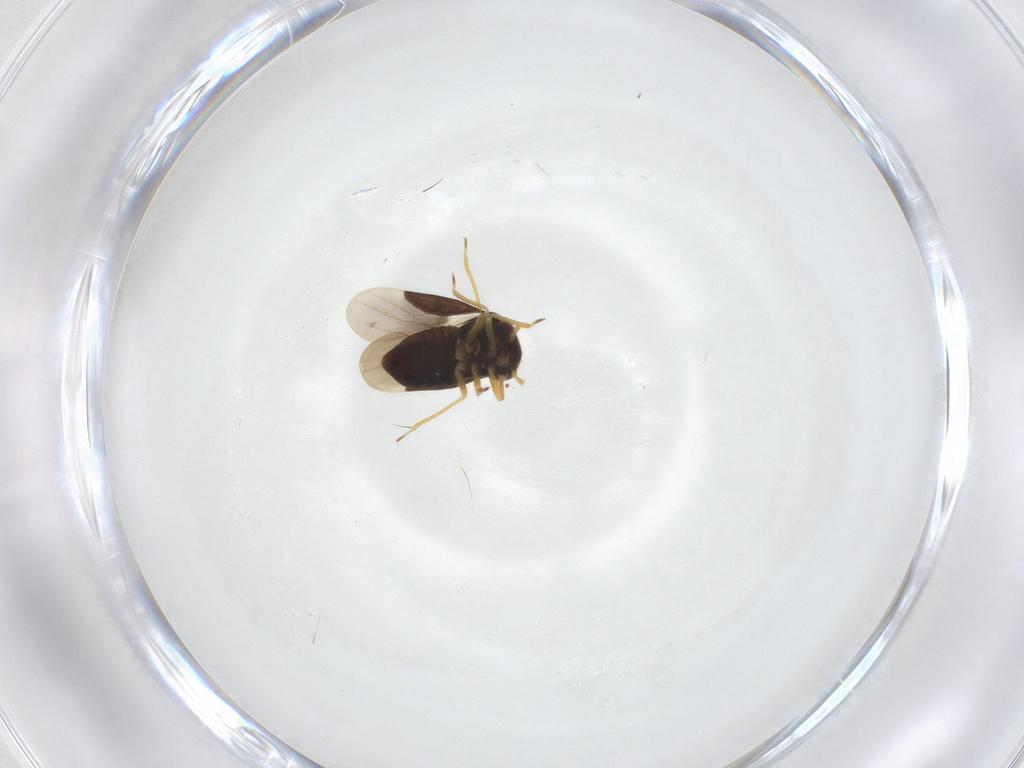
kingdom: Animalia
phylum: Arthropoda
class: Insecta
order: Hemiptera
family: Schizopteridae
